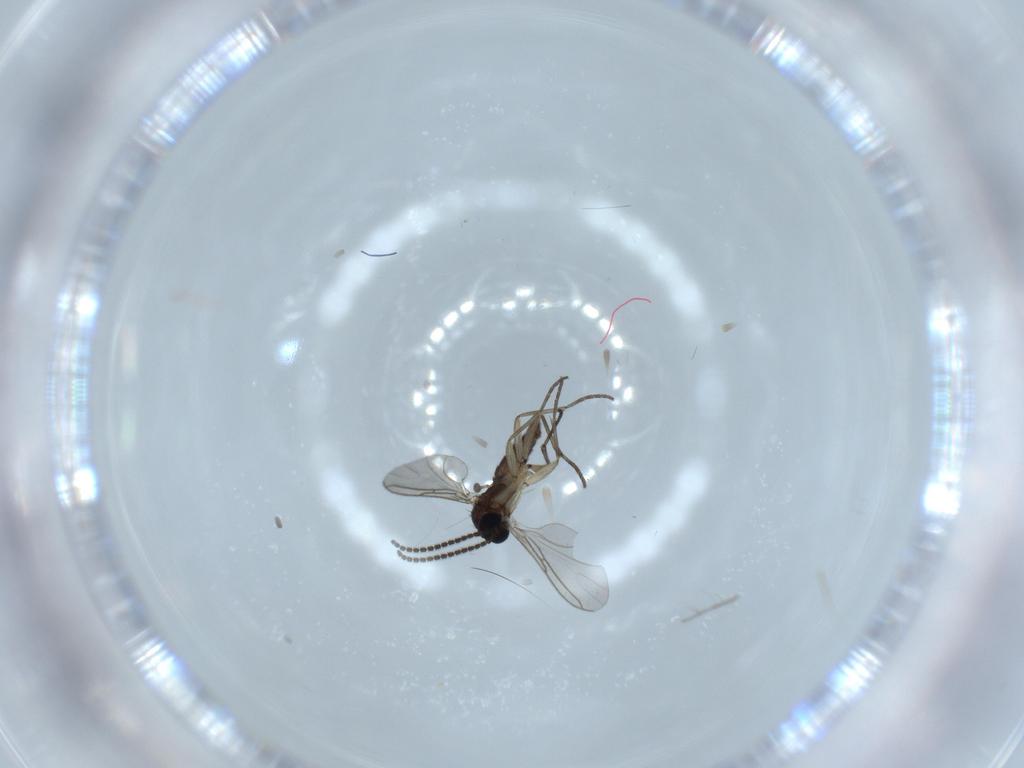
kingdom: Animalia
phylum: Arthropoda
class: Insecta
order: Diptera
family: Sciaridae
